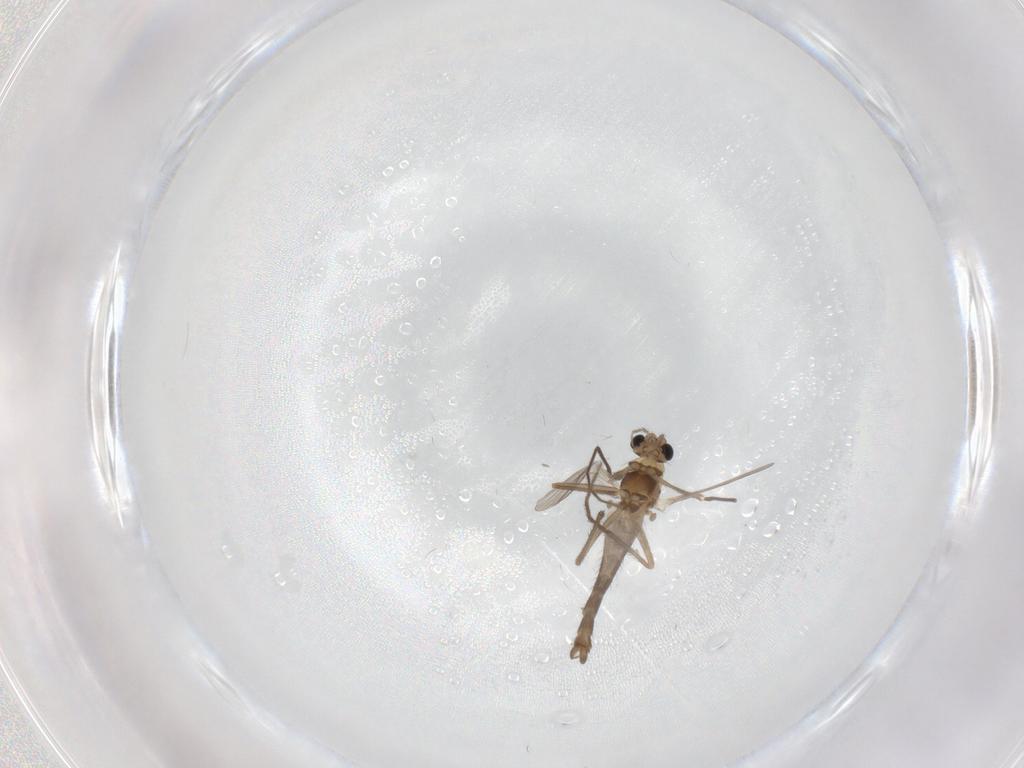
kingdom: Animalia
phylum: Arthropoda
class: Insecta
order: Diptera
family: Chironomidae
